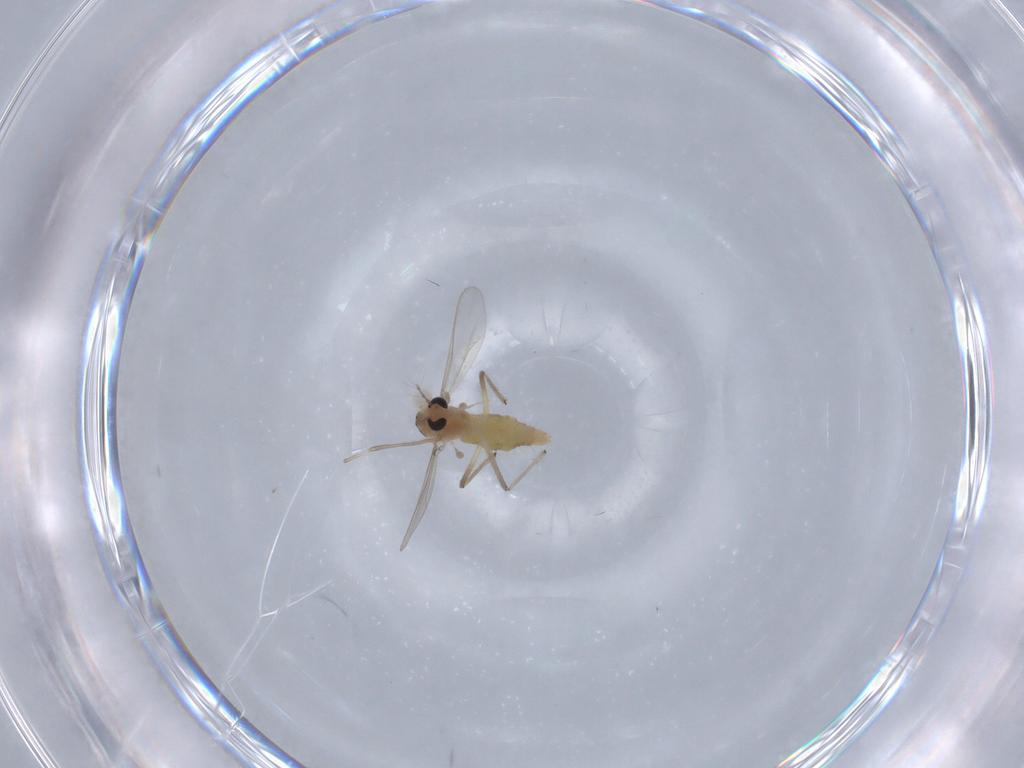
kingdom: Animalia
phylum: Arthropoda
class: Insecta
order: Diptera
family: Chironomidae
